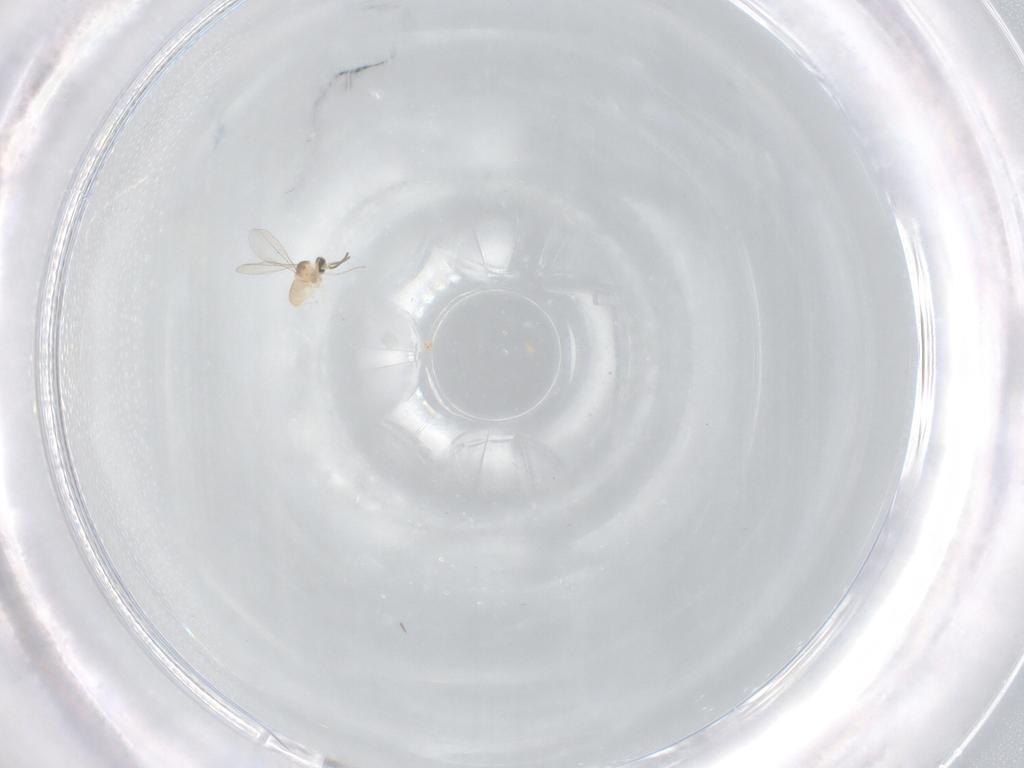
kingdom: Animalia
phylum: Arthropoda
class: Insecta
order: Diptera
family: Cecidomyiidae
